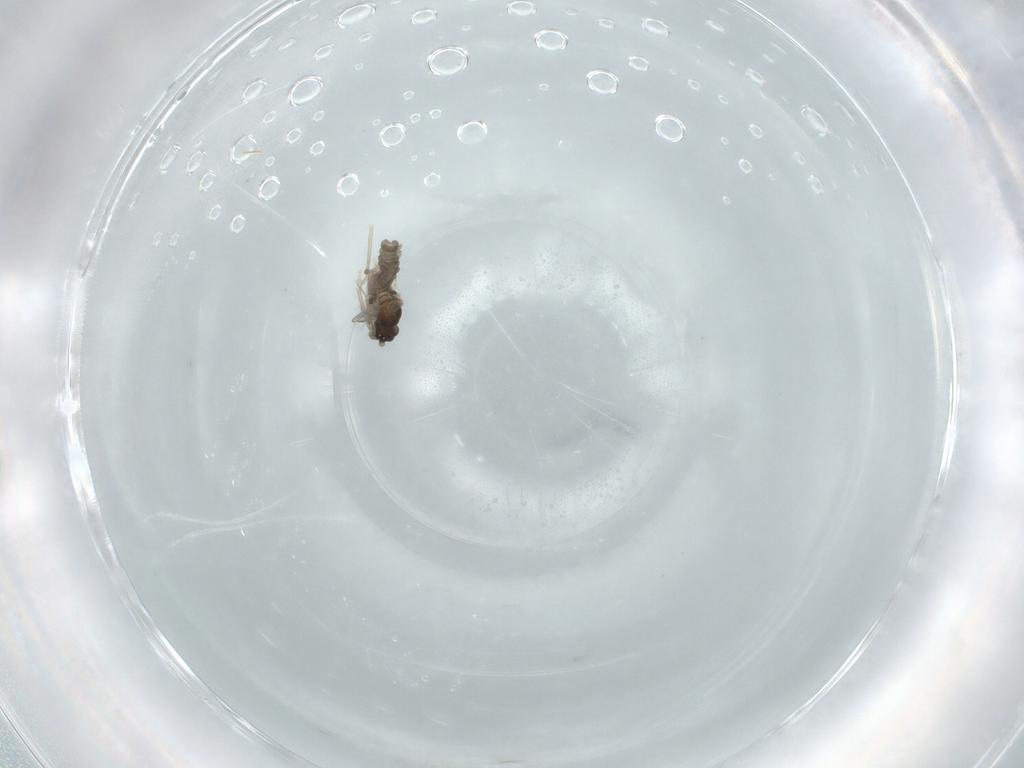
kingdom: Animalia
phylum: Arthropoda
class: Insecta
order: Diptera
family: Cecidomyiidae
